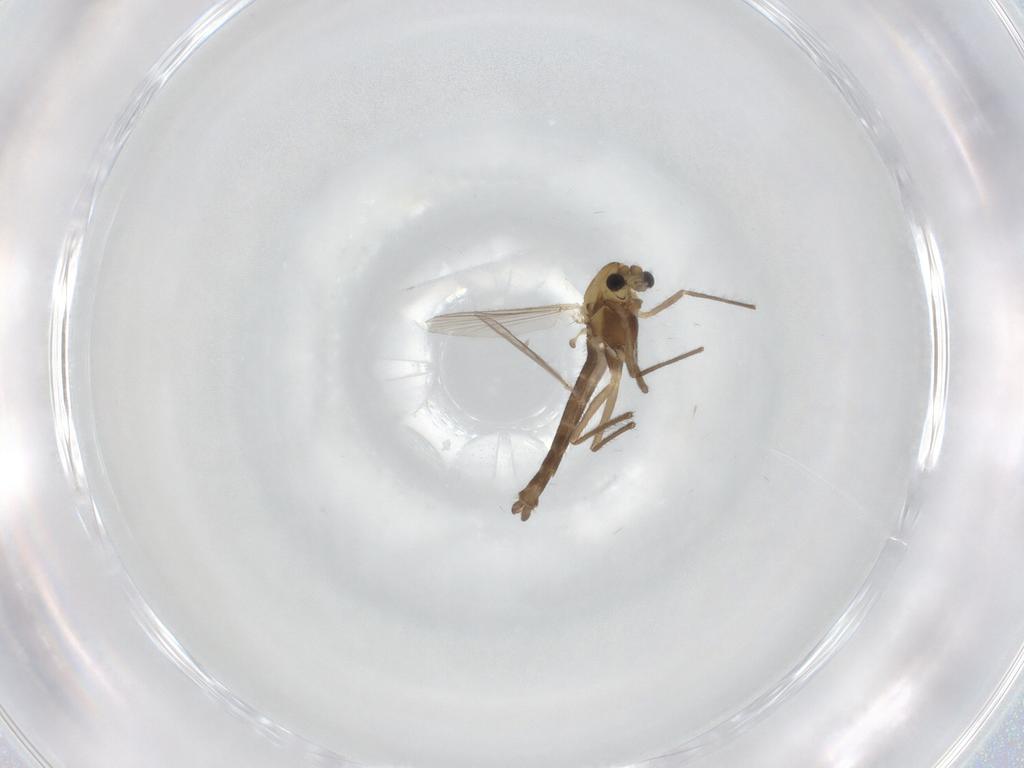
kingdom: Animalia
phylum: Arthropoda
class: Insecta
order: Diptera
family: Chironomidae
